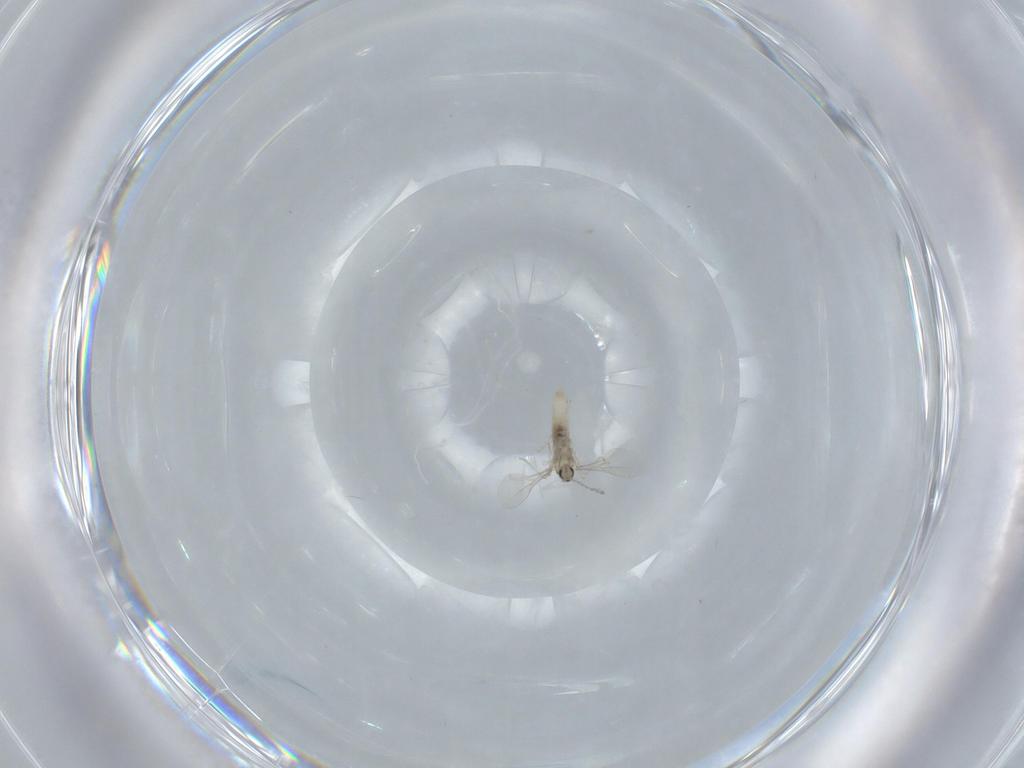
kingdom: Animalia
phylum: Arthropoda
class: Insecta
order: Diptera
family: Cecidomyiidae
